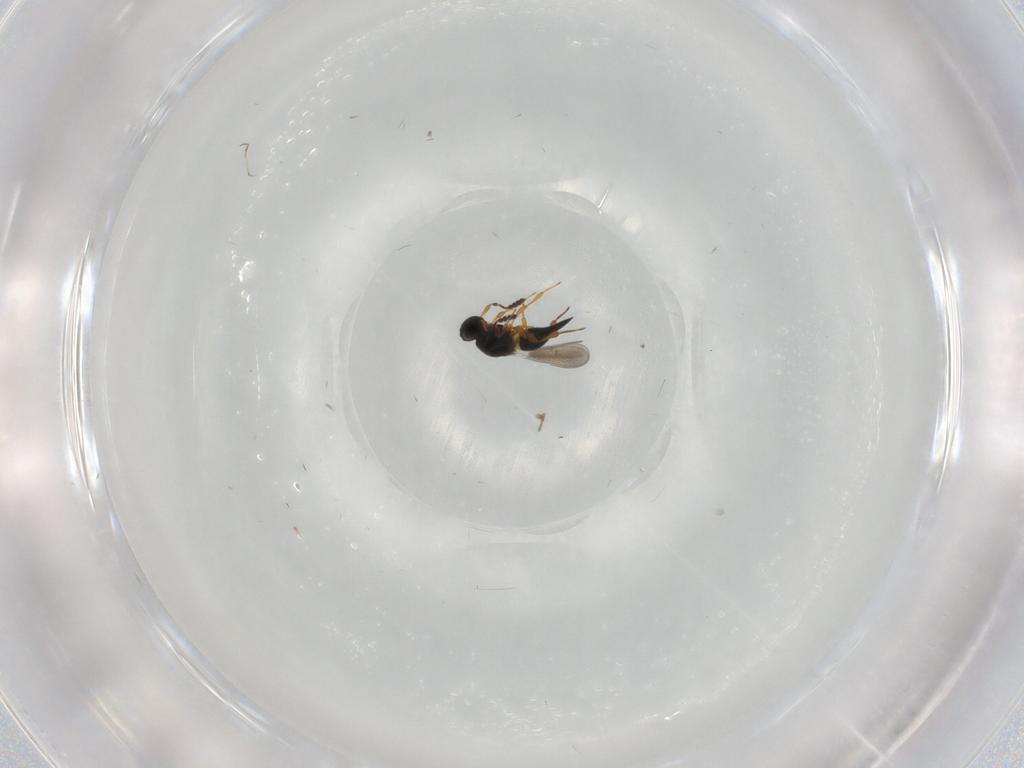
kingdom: Animalia
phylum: Arthropoda
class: Insecta
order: Hymenoptera
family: Platygastridae
